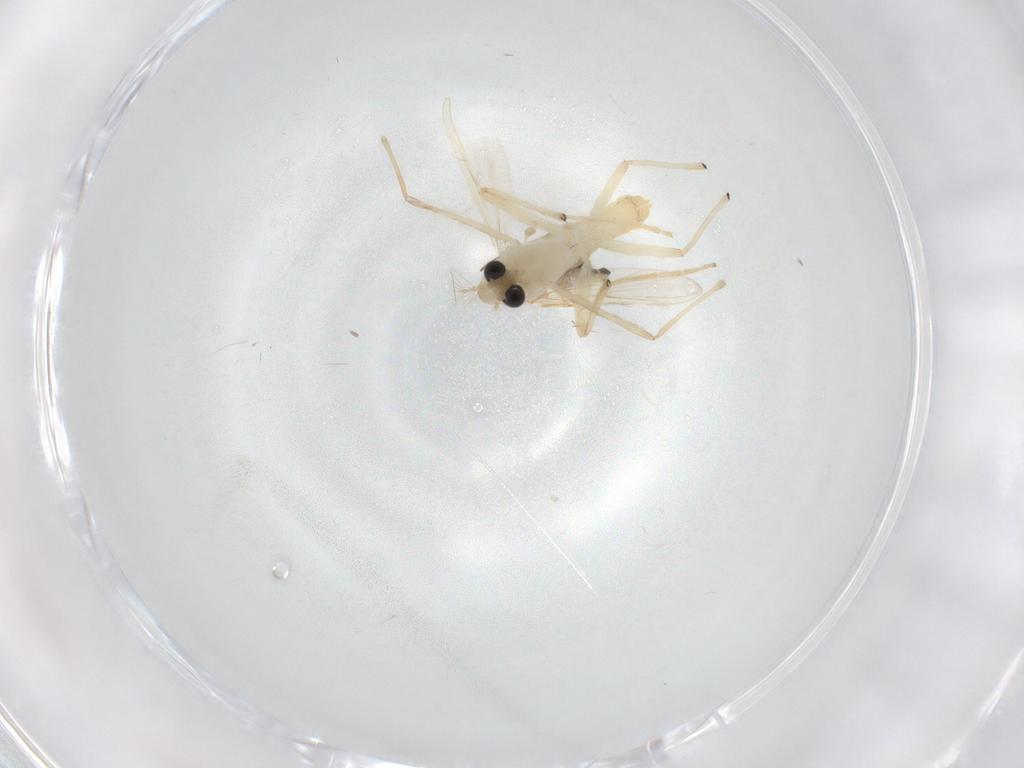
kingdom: Animalia
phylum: Arthropoda
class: Insecta
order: Diptera
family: Chironomidae
